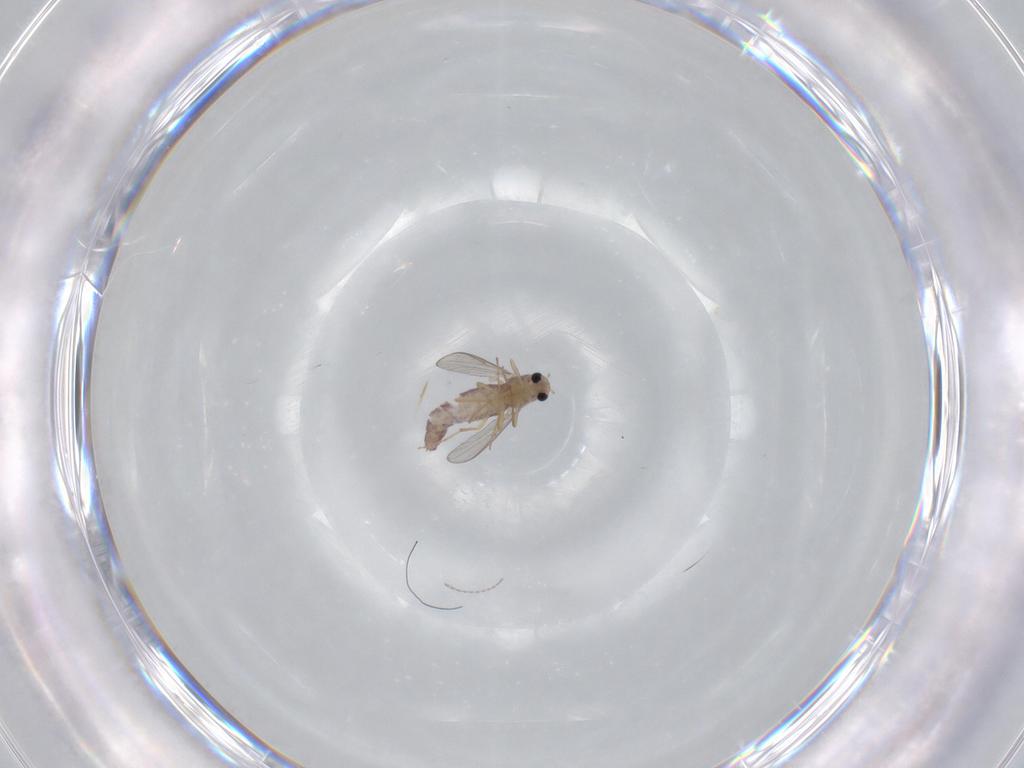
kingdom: Animalia
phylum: Arthropoda
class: Insecta
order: Diptera
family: Chironomidae
